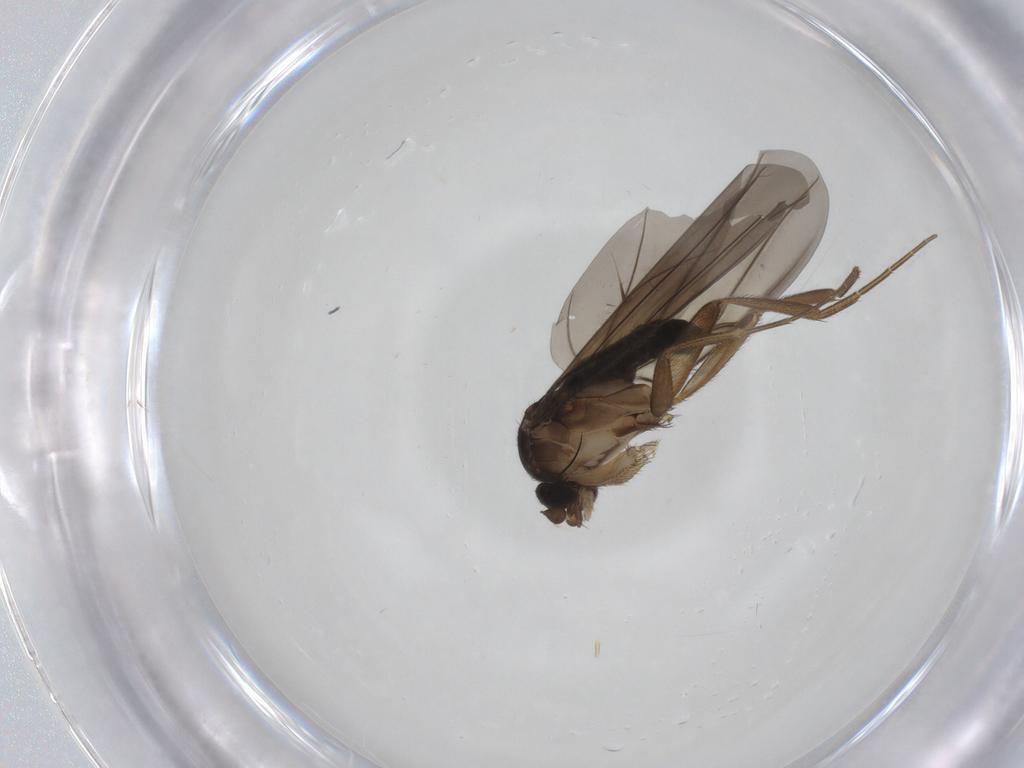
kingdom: Animalia
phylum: Arthropoda
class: Insecta
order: Diptera
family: Muscidae
